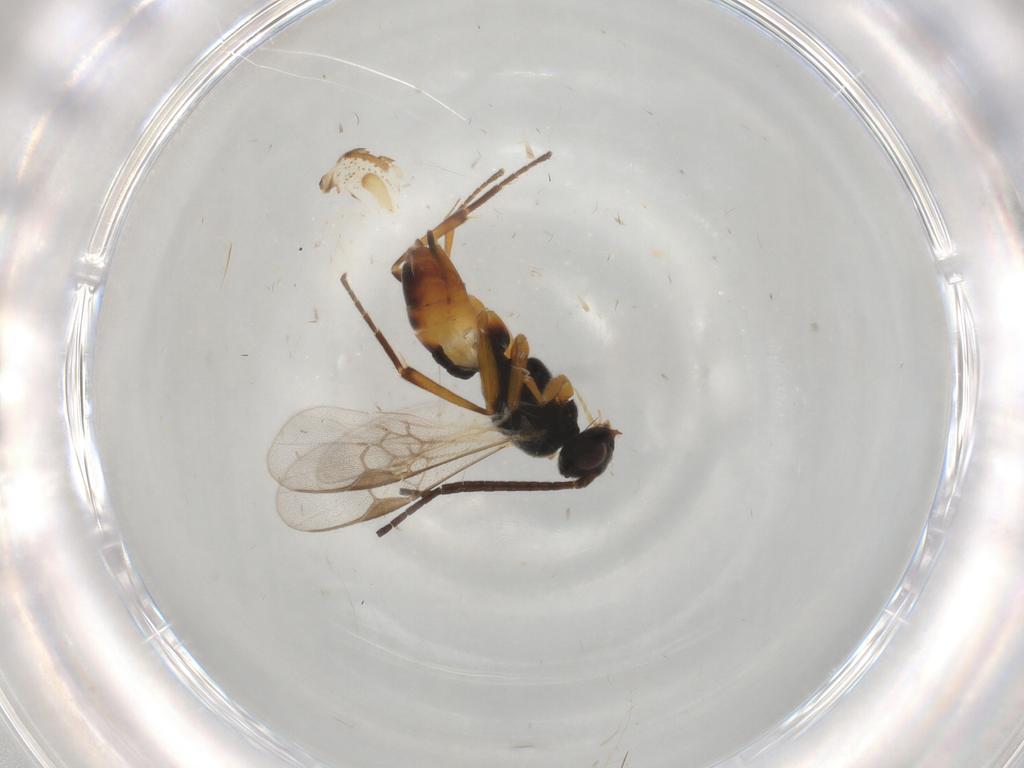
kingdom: Animalia
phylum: Arthropoda
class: Insecta
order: Hymenoptera
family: Braconidae
